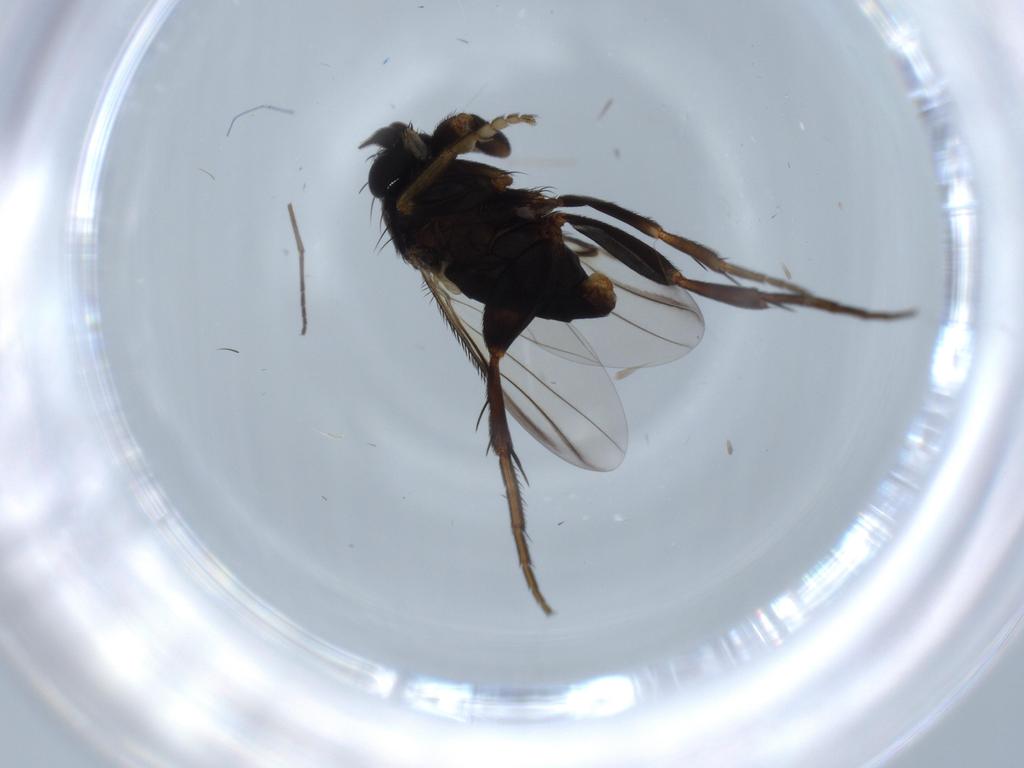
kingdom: Animalia
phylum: Arthropoda
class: Insecta
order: Diptera
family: Phoridae
